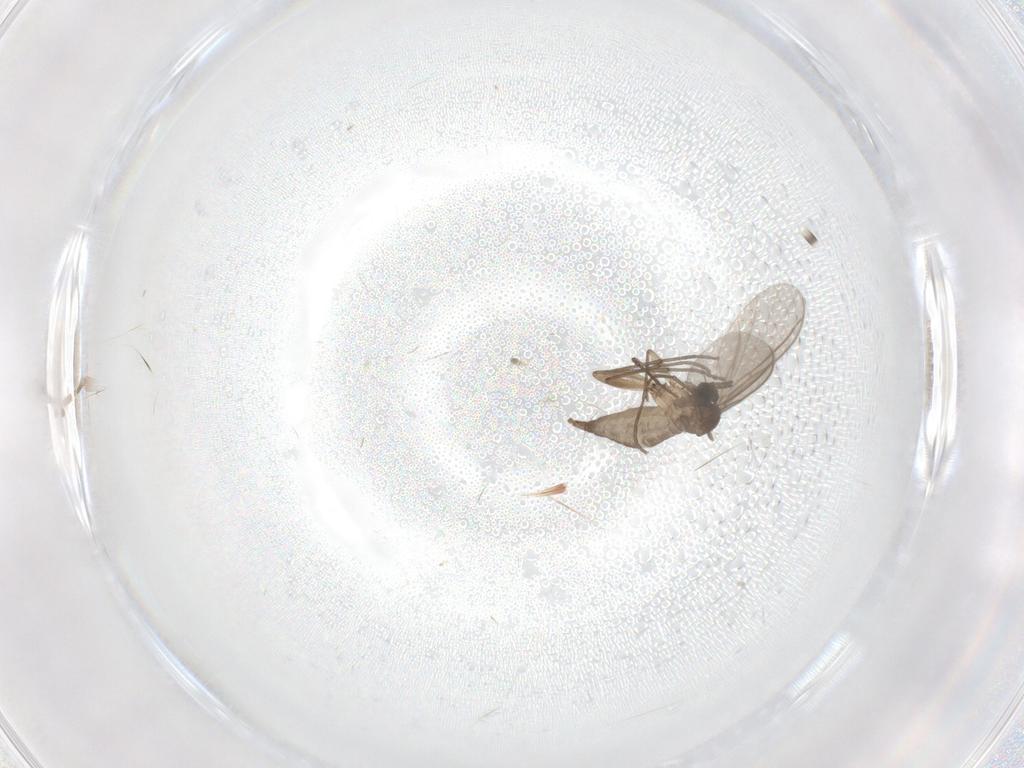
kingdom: Animalia
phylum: Arthropoda
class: Insecta
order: Diptera
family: Sciaridae
